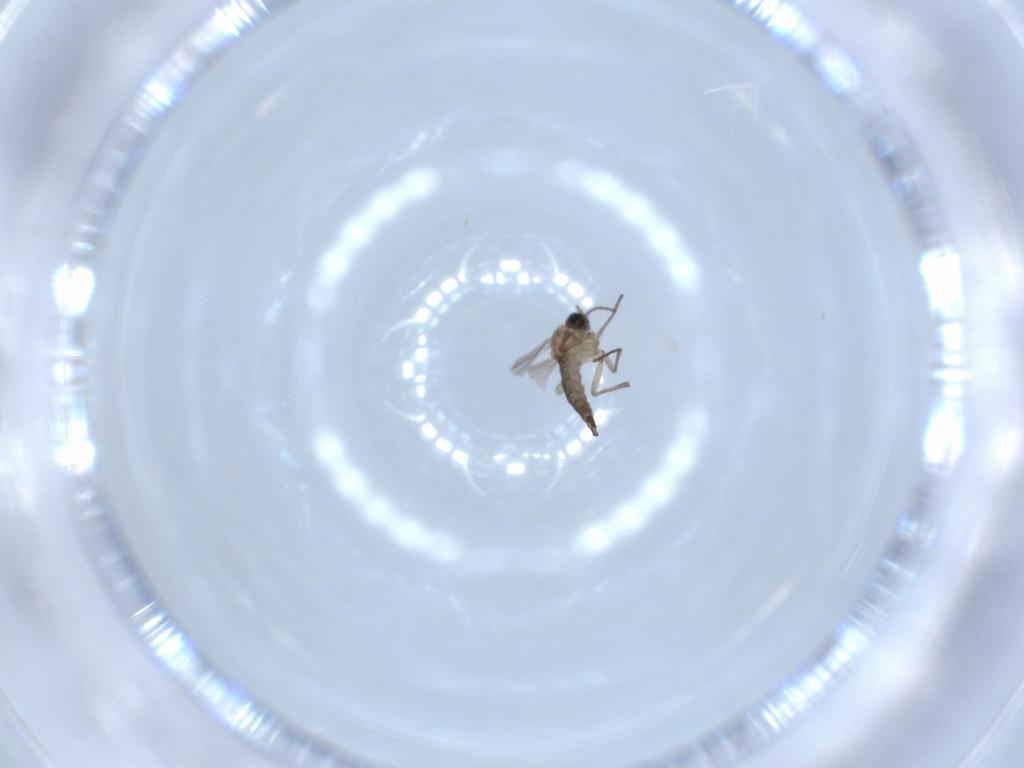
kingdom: Animalia
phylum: Arthropoda
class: Insecta
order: Diptera
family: Sciaridae
